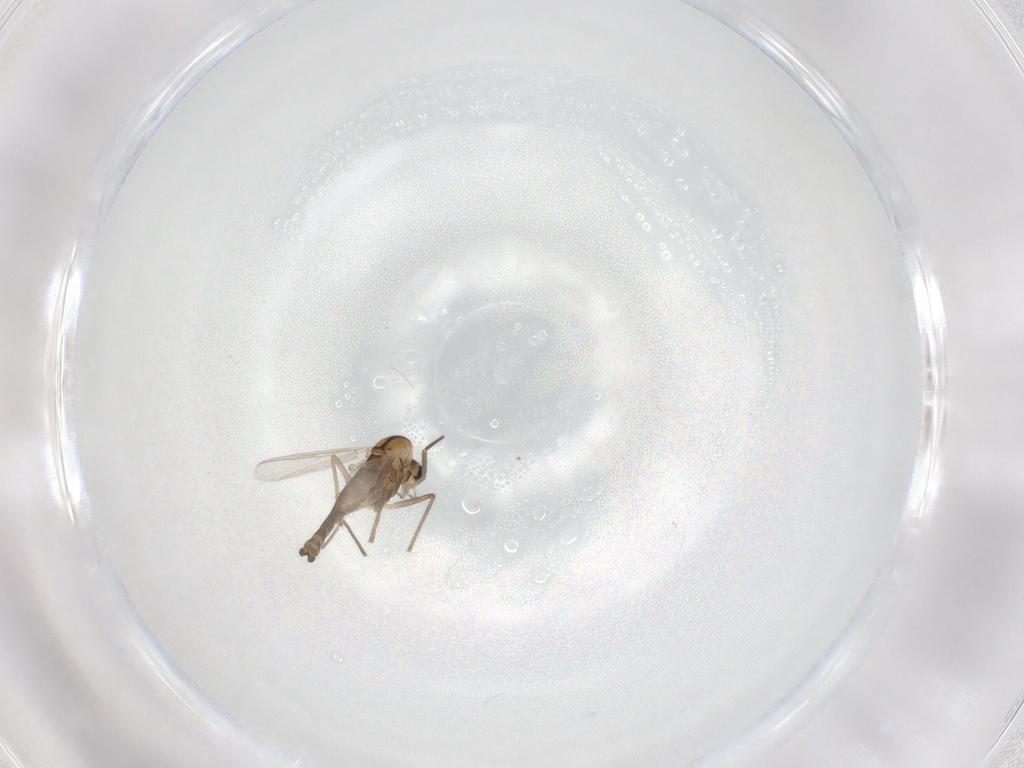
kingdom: Animalia
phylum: Arthropoda
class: Insecta
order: Diptera
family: Chironomidae
